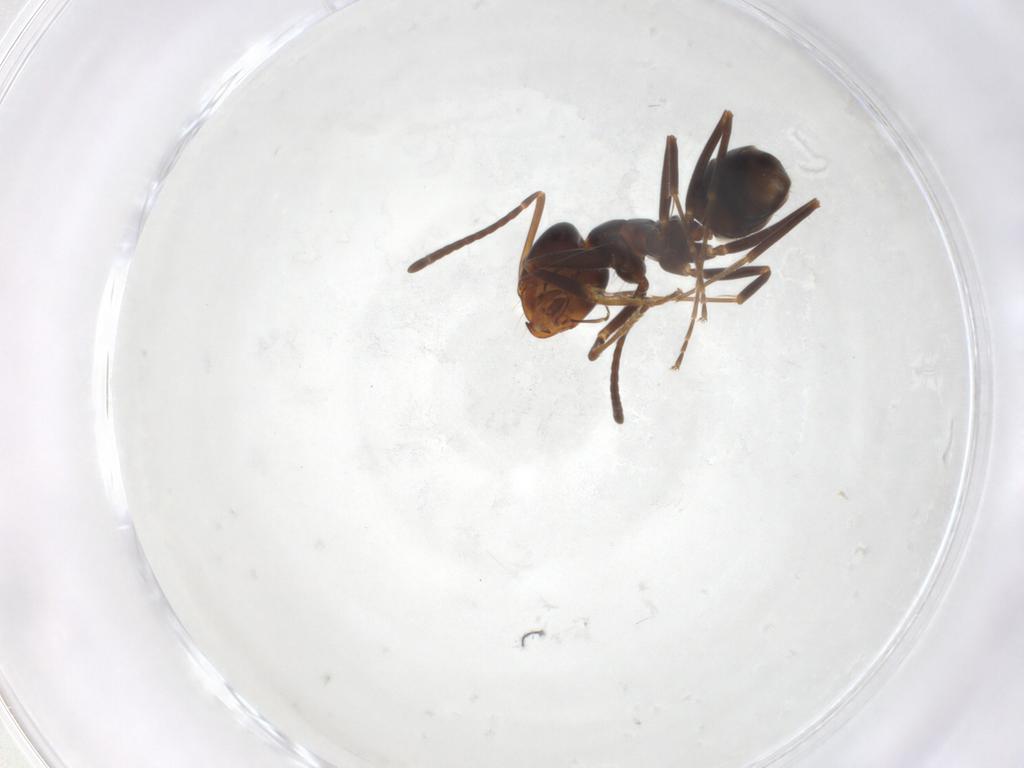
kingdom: Animalia
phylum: Arthropoda
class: Insecta
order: Hymenoptera
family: Formicidae
